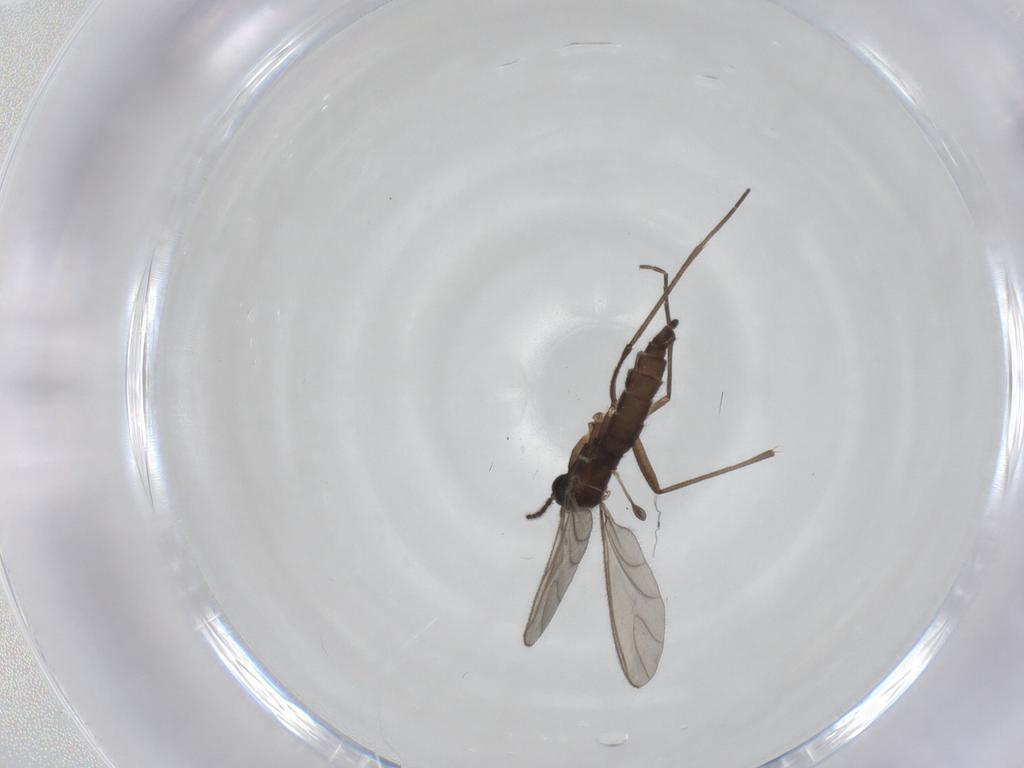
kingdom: Animalia
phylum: Arthropoda
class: Insecta
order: Diptera
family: Sciaridae
